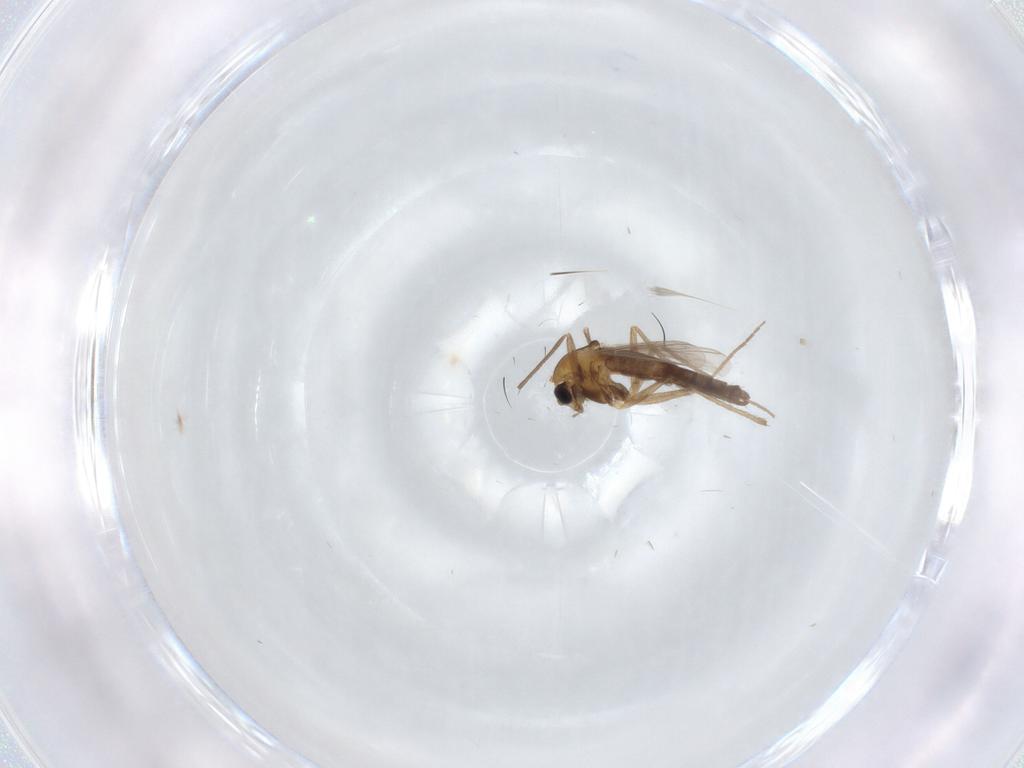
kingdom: Animalia
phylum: Arthropoda
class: Insecta
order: Diptera
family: Chironomidae
